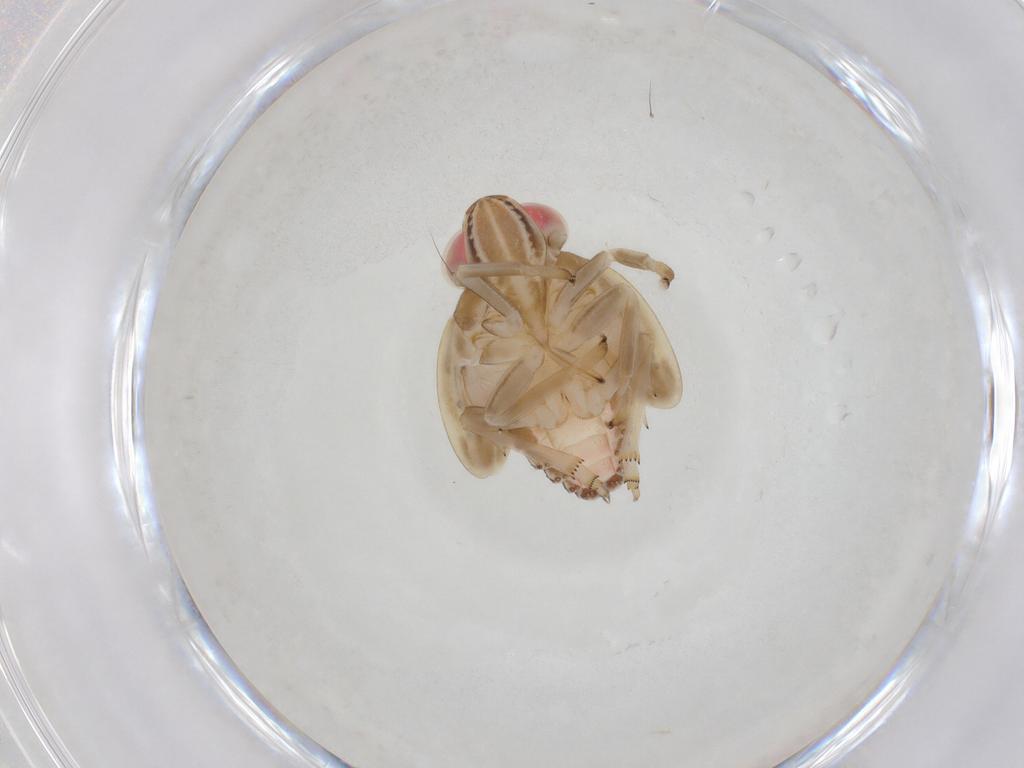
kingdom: Animalia
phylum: Arthropoda
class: Insecta
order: Hemiptera
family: Nogodinidae
